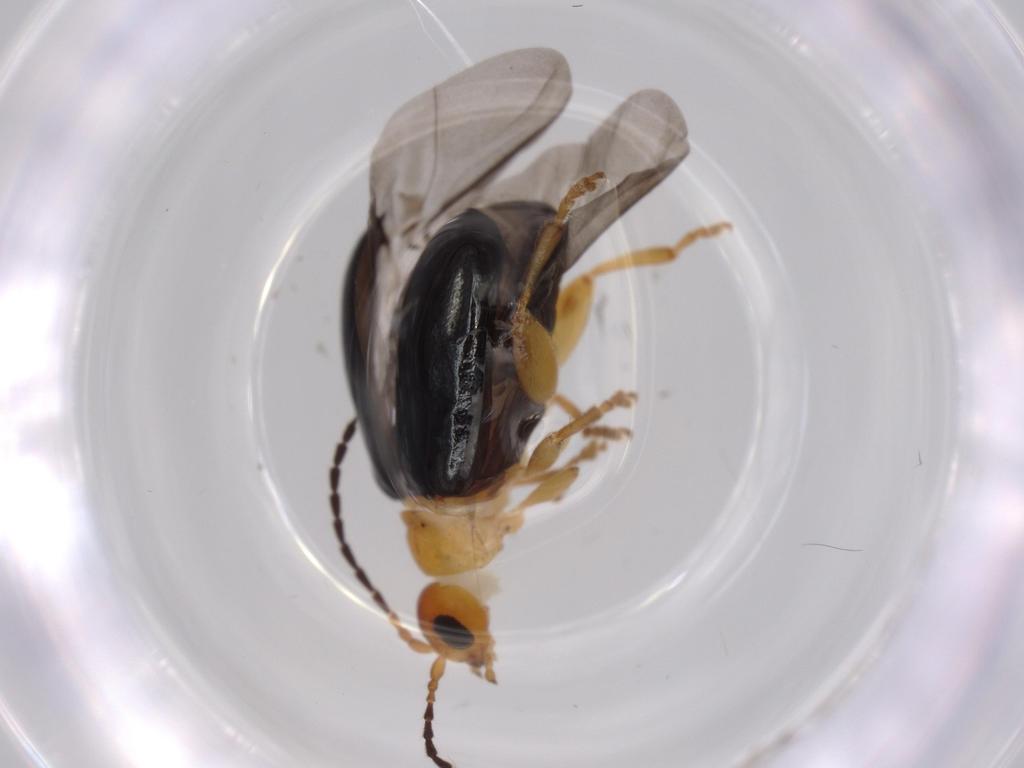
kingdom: Animalia
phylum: Arthropoda
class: Insecta
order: Coleoptera
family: Chrysomelidae
